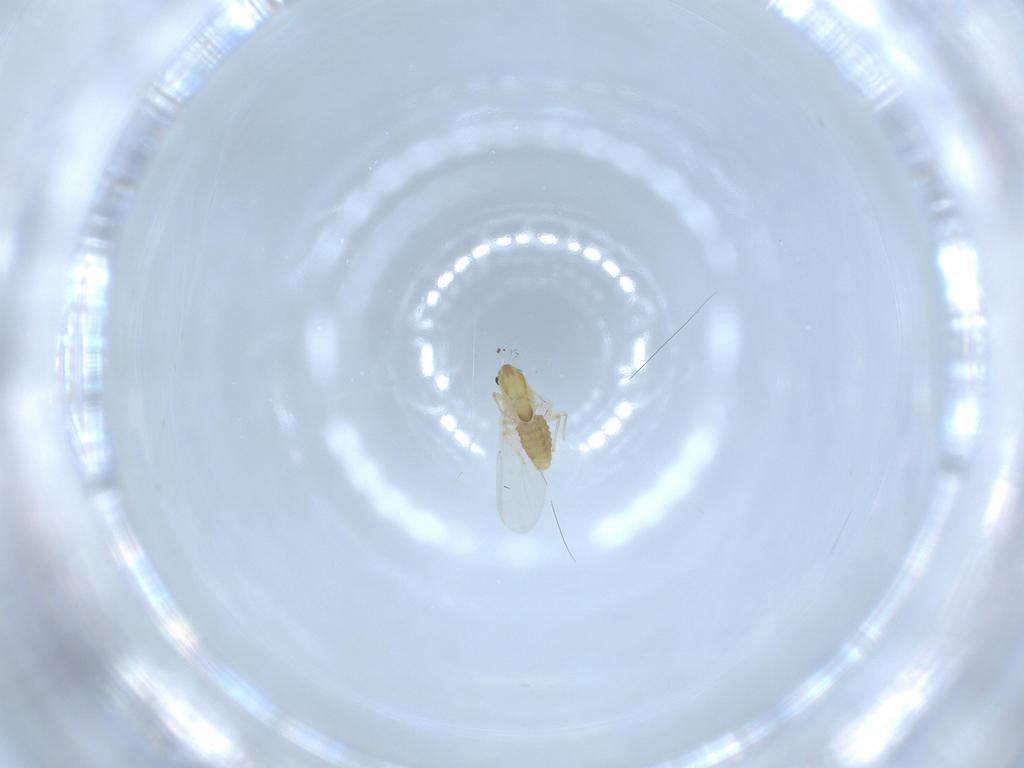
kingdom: Animalia
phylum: Arthropoda
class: Insecta
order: Diptera
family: Chironomidae
